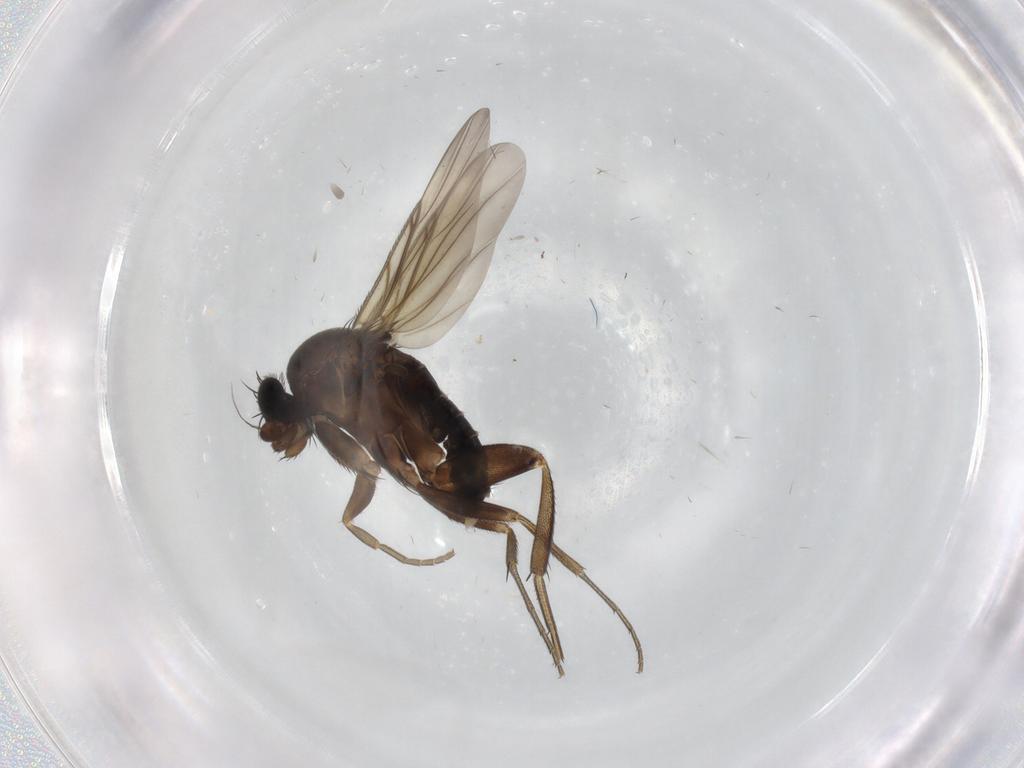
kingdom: Animalia
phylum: Arthropoda
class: Insecta
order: Diptera
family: Phoridae
